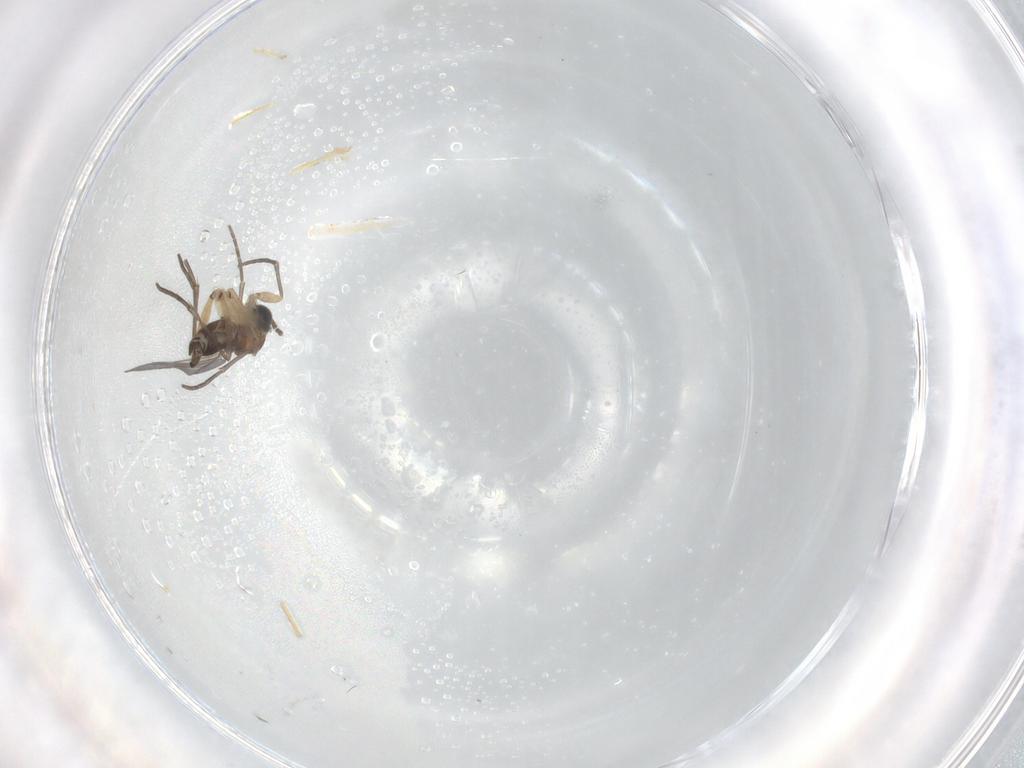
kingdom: Animalia
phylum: Arthropoda
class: Insecta
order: Diptera
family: Sciaridae
